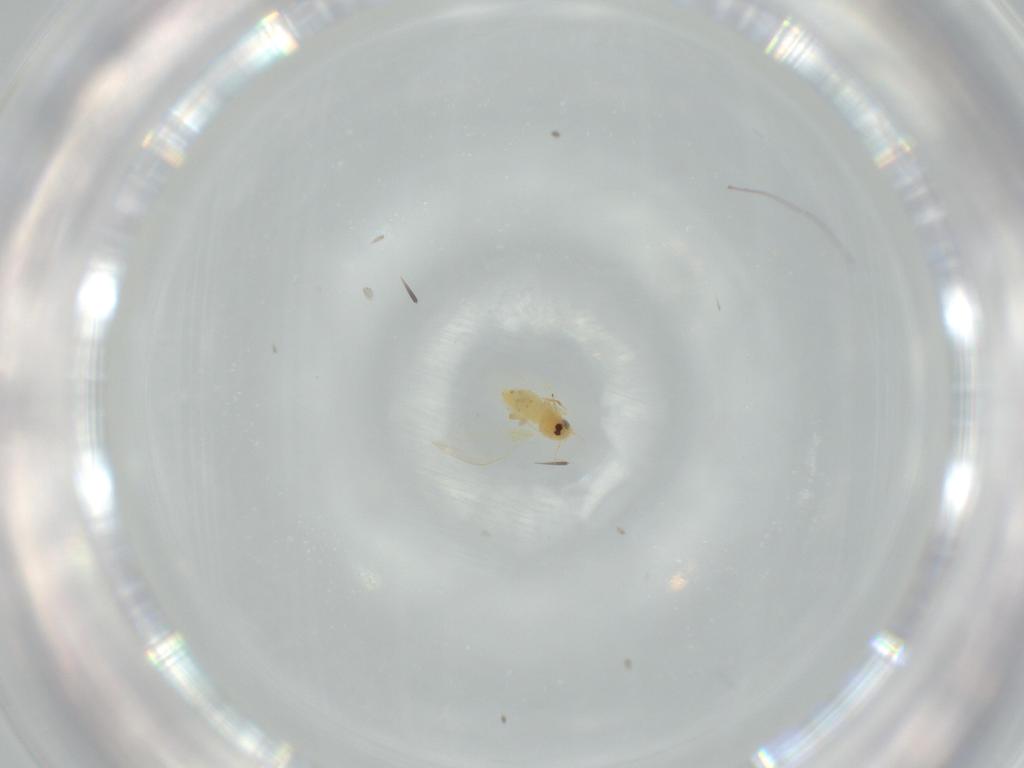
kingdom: Animalia
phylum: Arthropoda
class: Insecta
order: Hemiptera
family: Aleyrodidae
